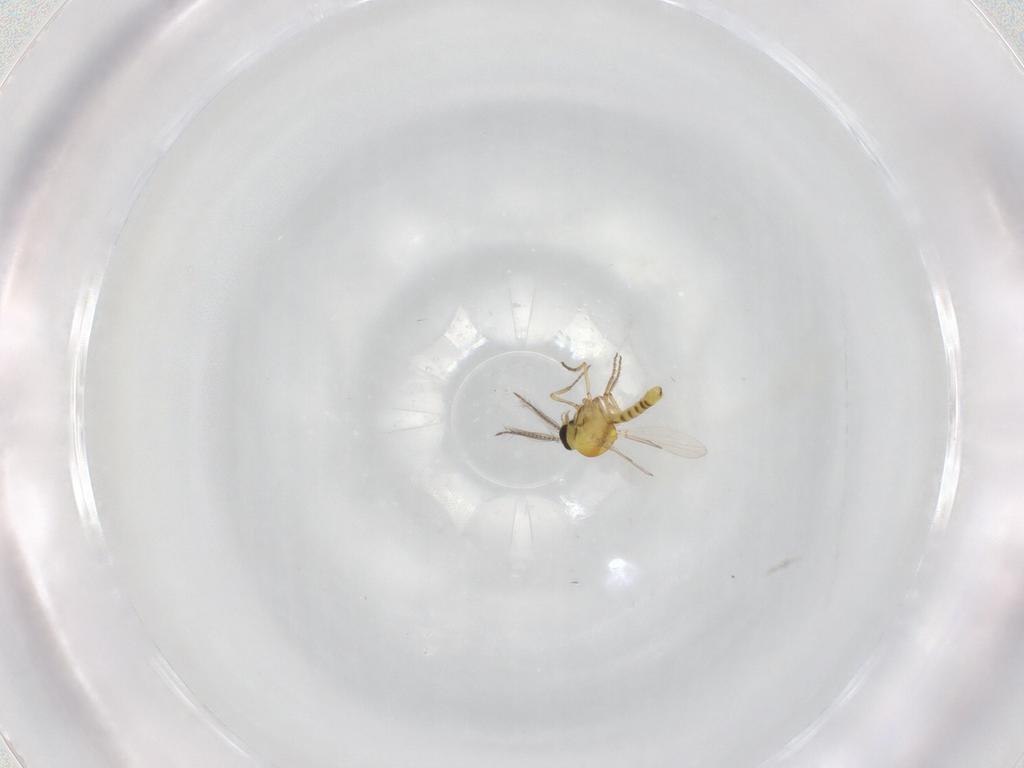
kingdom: Animalia
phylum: Arthropoda
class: Insecta
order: Diptera
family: Ceratopogonidae
